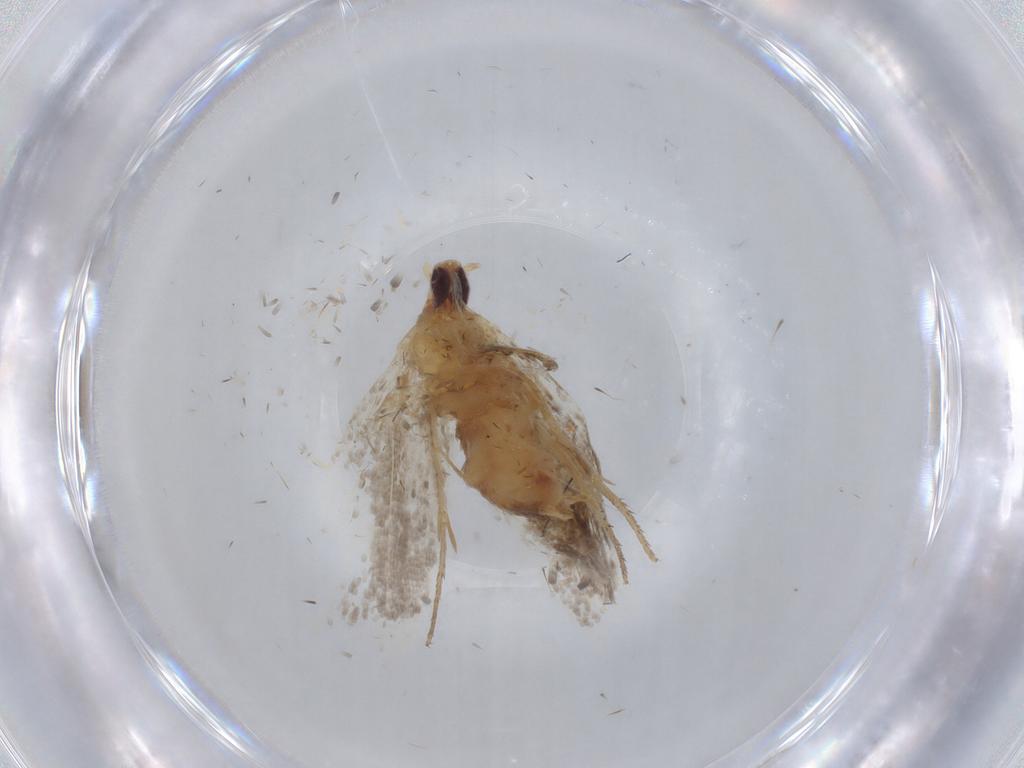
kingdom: Animalia
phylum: Arthropoda
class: Insecta
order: Lepidoptera
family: Ypsolophidae
